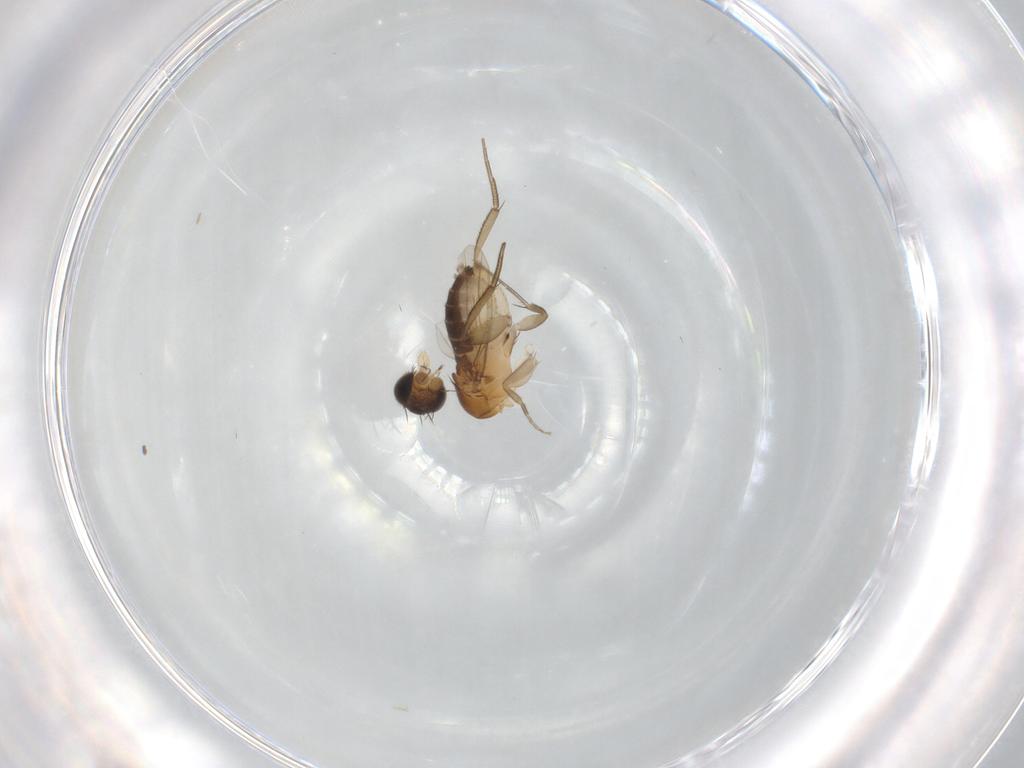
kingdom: Animalia
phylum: Arthropoda
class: Insecta
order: Diptera
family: Phoridae
